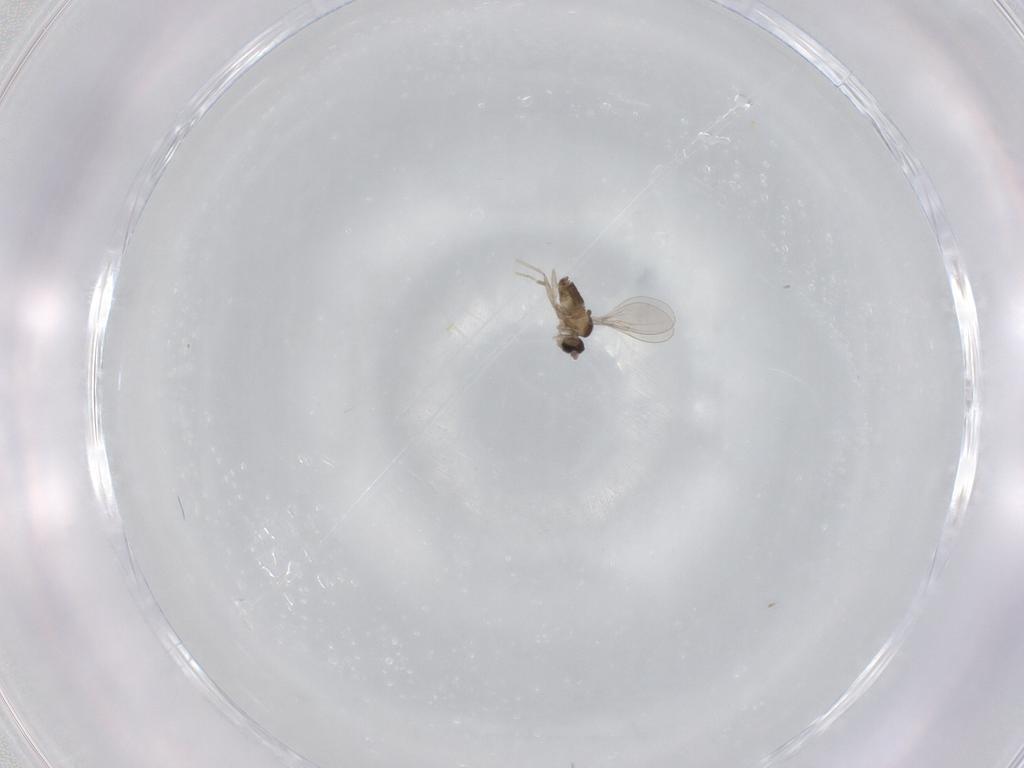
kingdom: Animalia
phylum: Arthropoda
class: Insecta
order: Diptera
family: Cecidomyiidae
